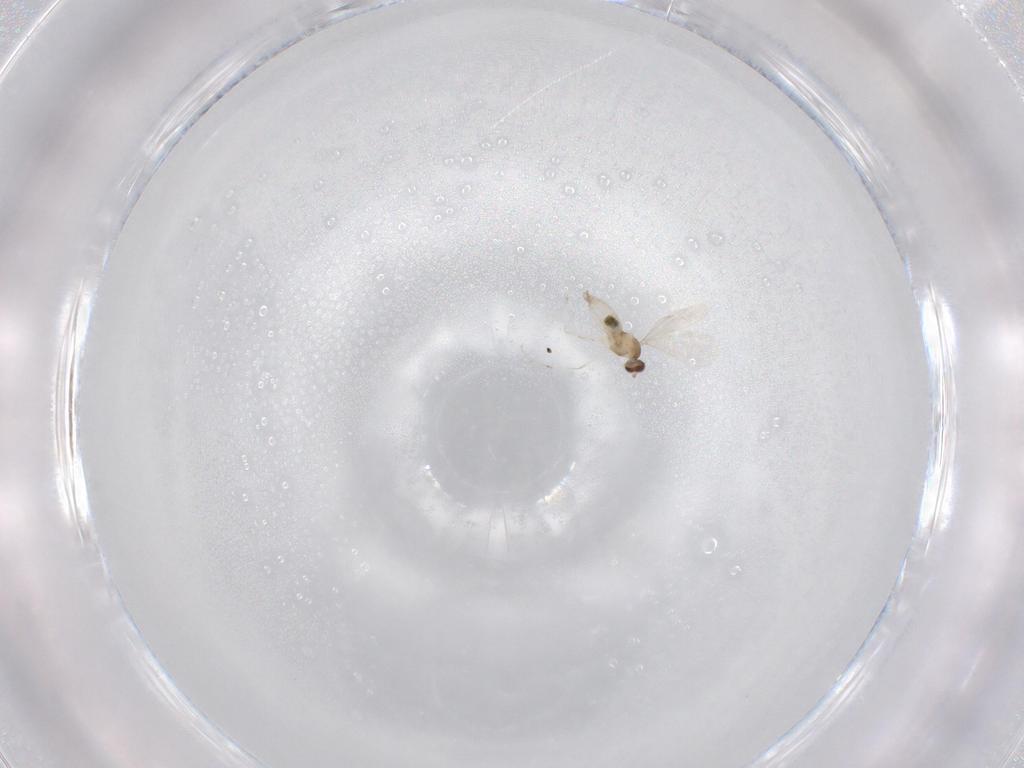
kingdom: Animalia
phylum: Arthropoda
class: Insecta
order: Diptera
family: Cecidomyiidae
